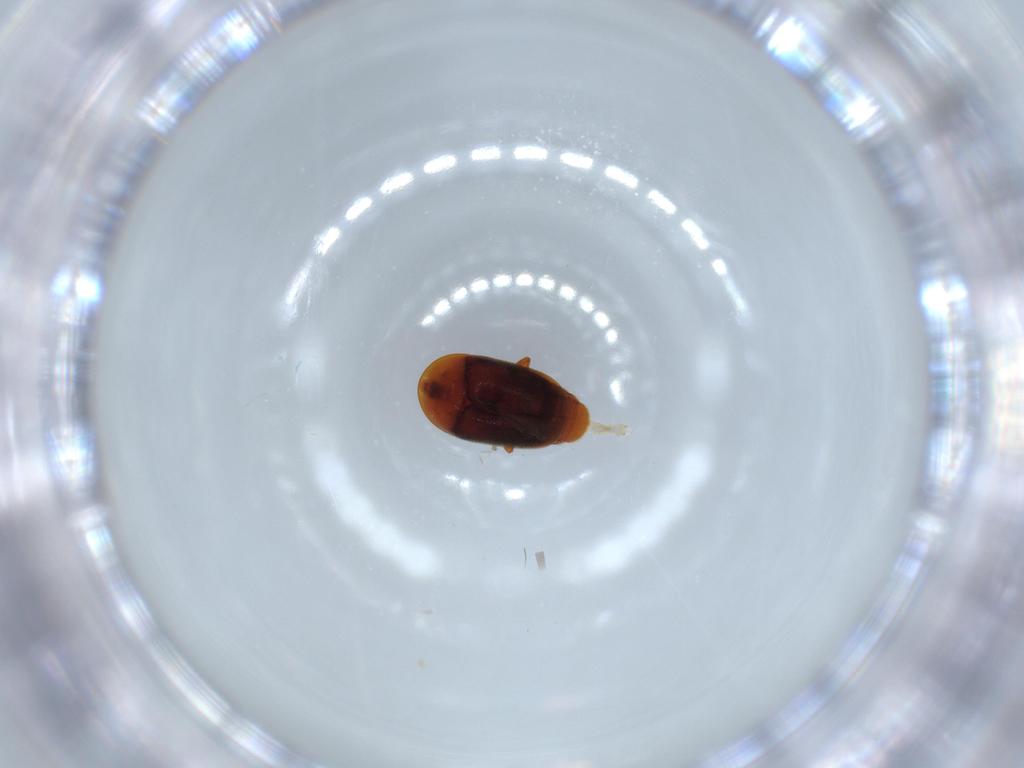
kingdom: Animalia
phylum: Arthropoda
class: Insecta
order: Coleoptera
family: Corylophidae
